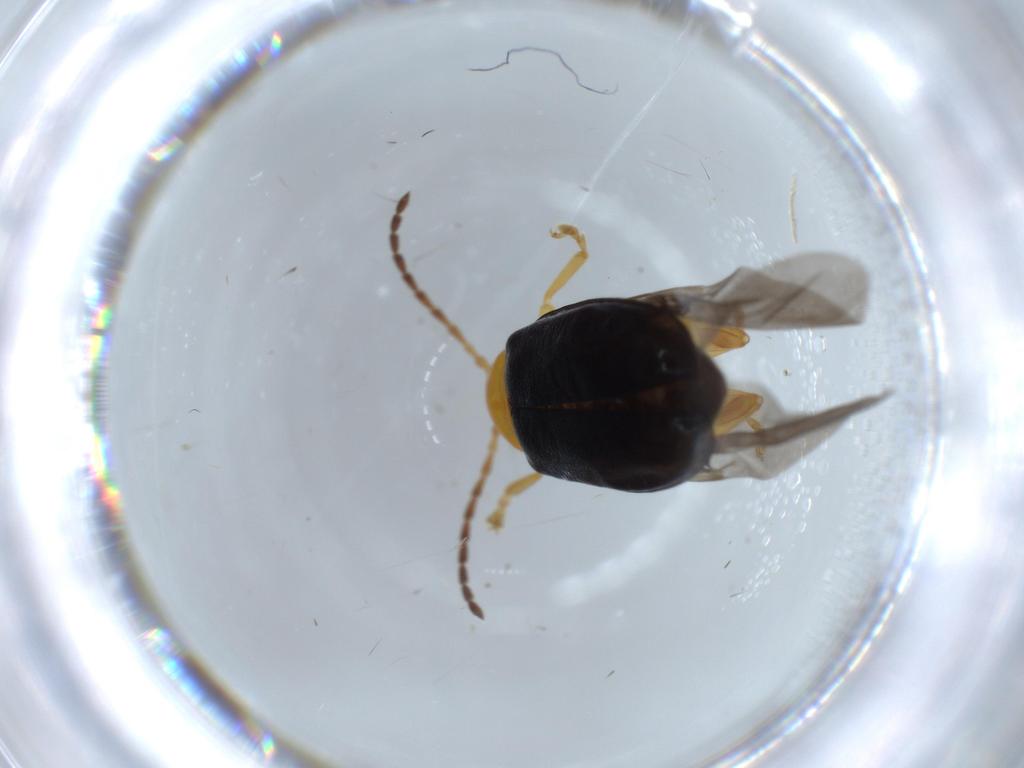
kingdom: Animalia
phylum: Arthropoda
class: Insecta
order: Coleoptera
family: Chrysomelidae
